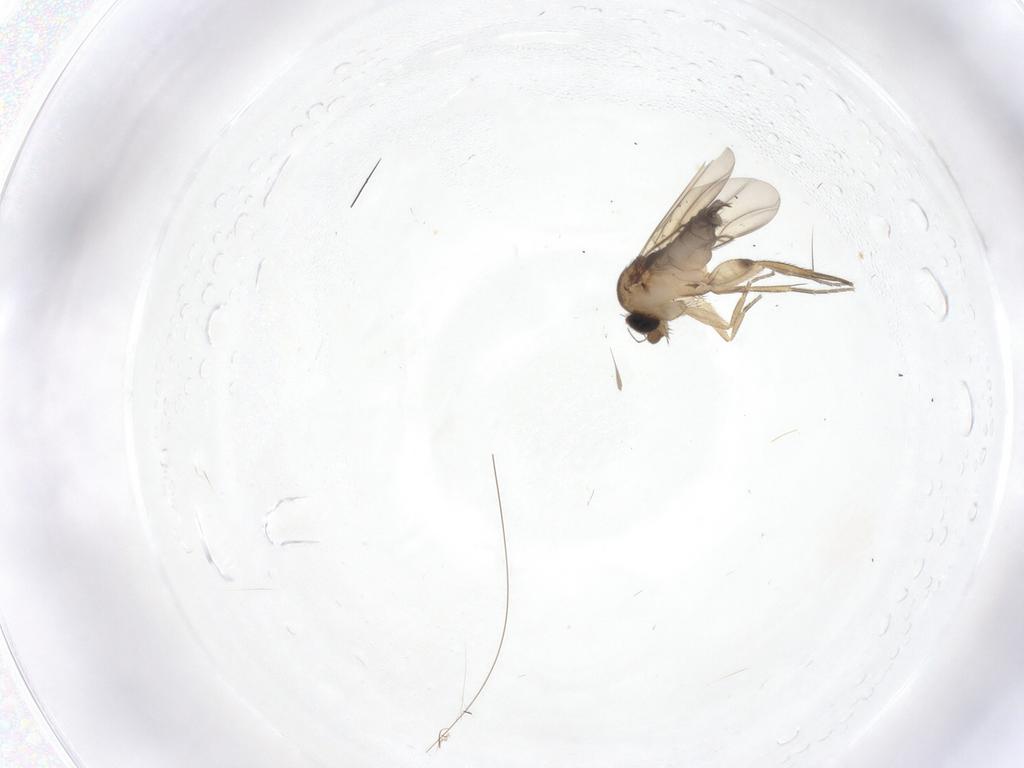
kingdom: Animalia
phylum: Arthropoda
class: Insecta
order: Diptera
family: Phoridae
